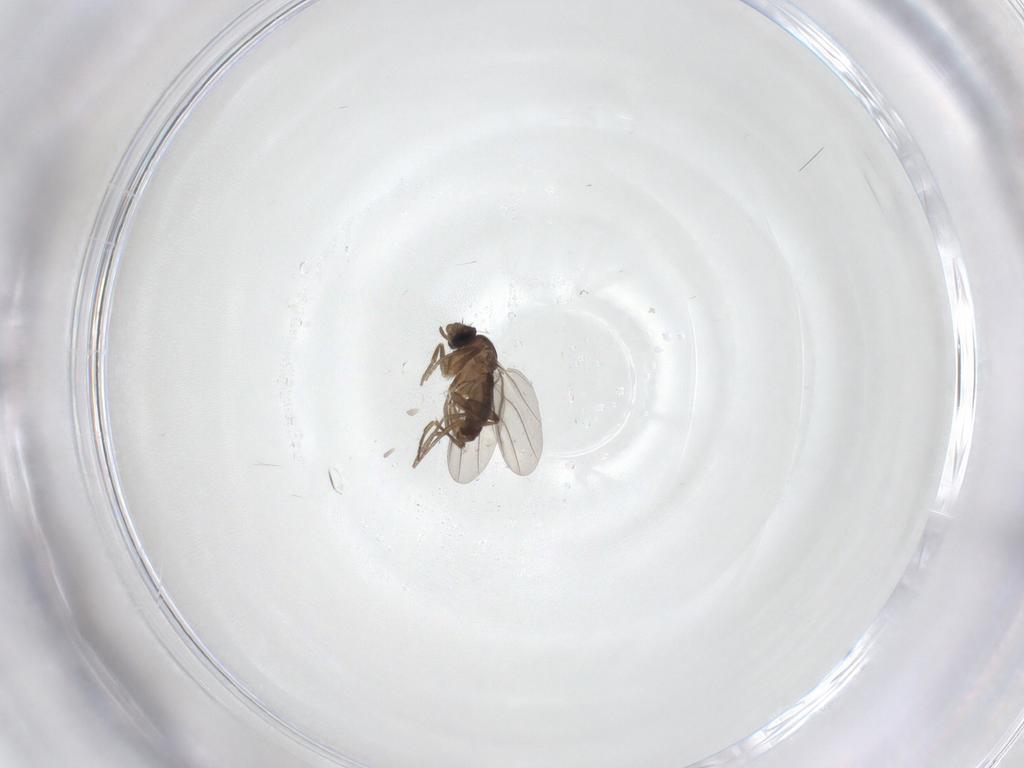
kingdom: Animalia
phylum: Arthropoda
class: Insecta
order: Diptera
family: Phoridae
